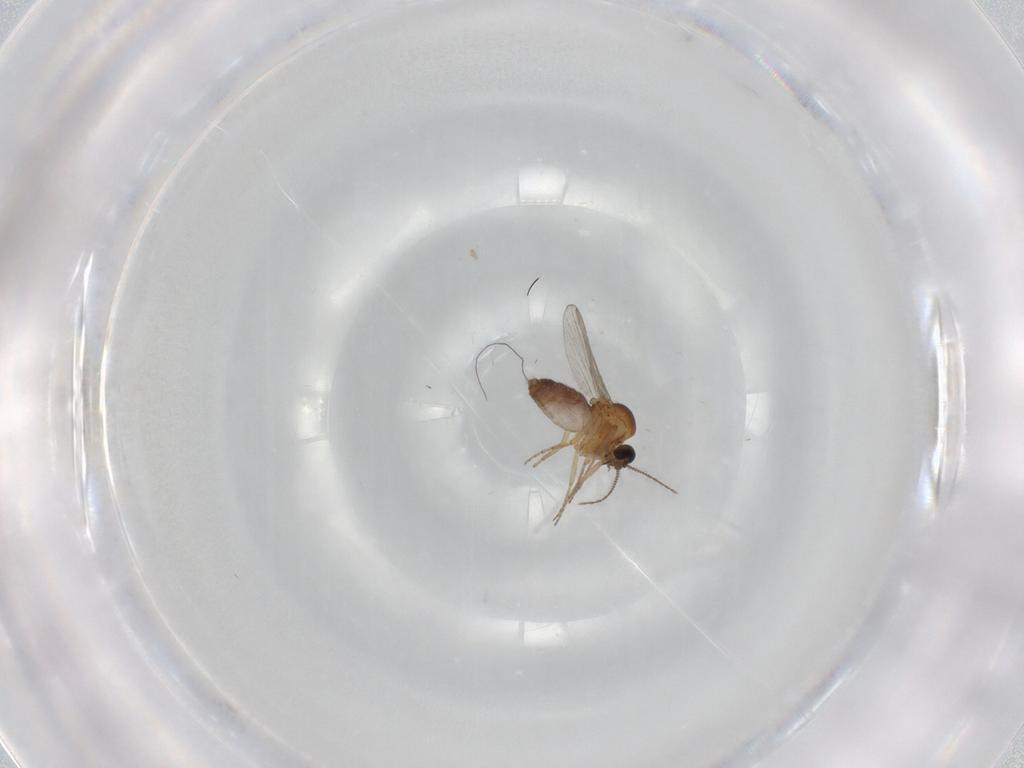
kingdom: Animalia
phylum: Arthropoda
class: Insecta
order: Diptera
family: Ceratopogonidae
